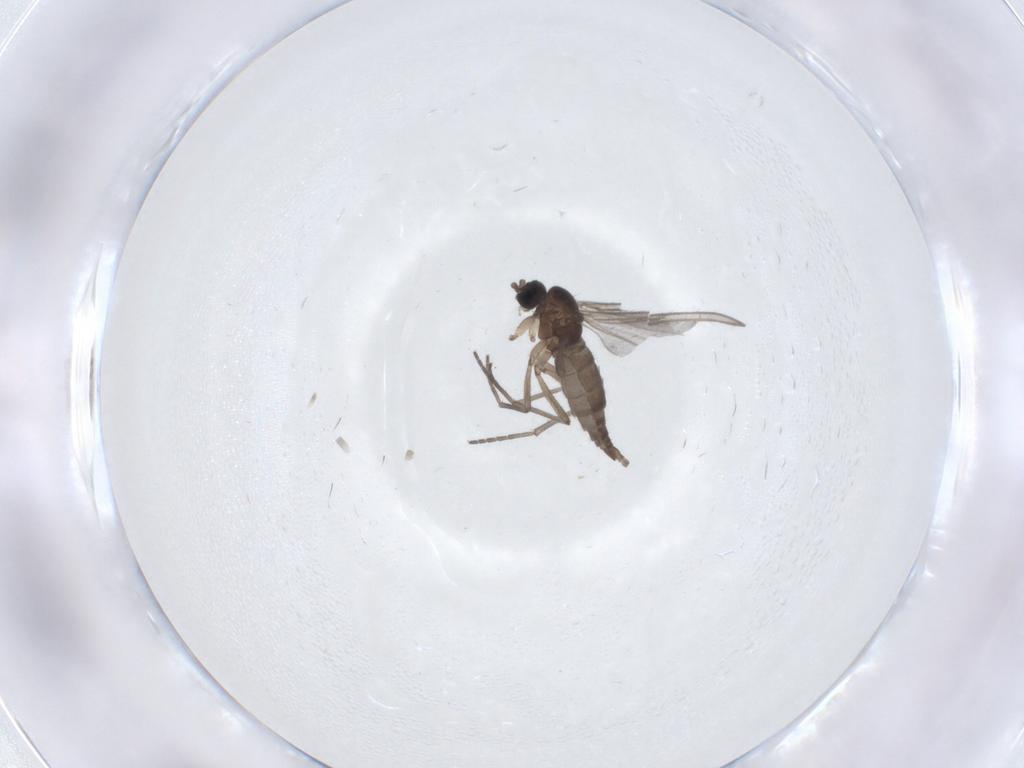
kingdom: Animalia
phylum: Arthropoda
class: Insecta
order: Diptera
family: Sciaridae
